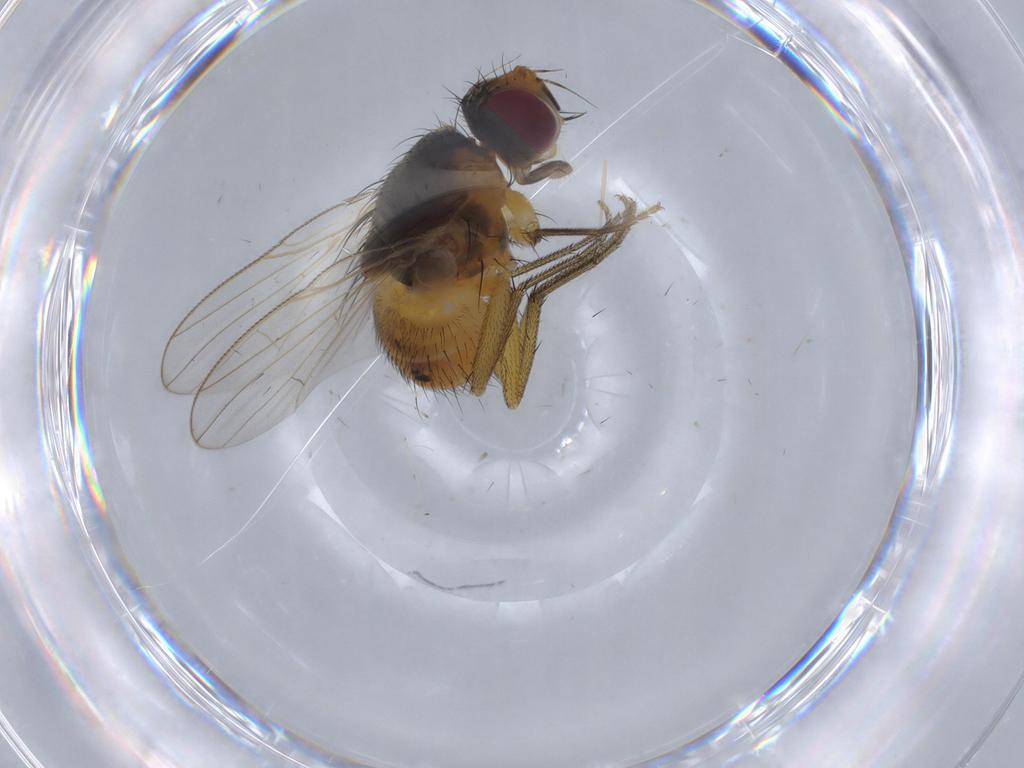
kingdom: Animalia
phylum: Arthropoda
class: Insecta
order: Diptera
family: Muscidae
